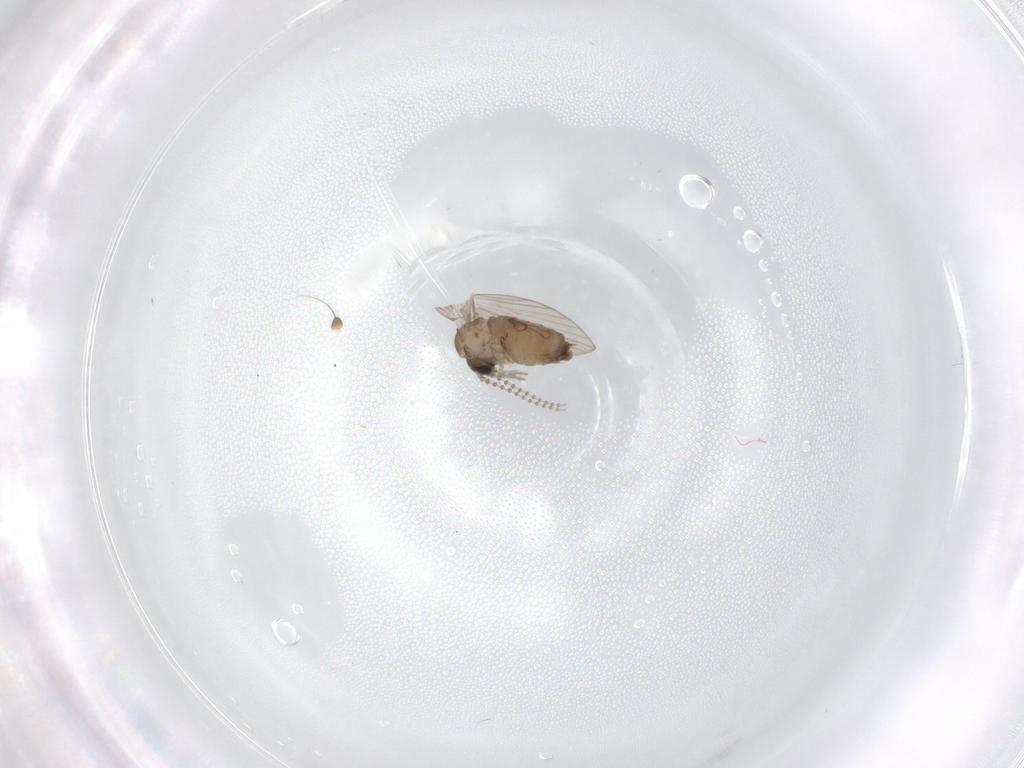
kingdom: Animalia
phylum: Arthropoda
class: Insecta
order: Diptera
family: Psychodidae
